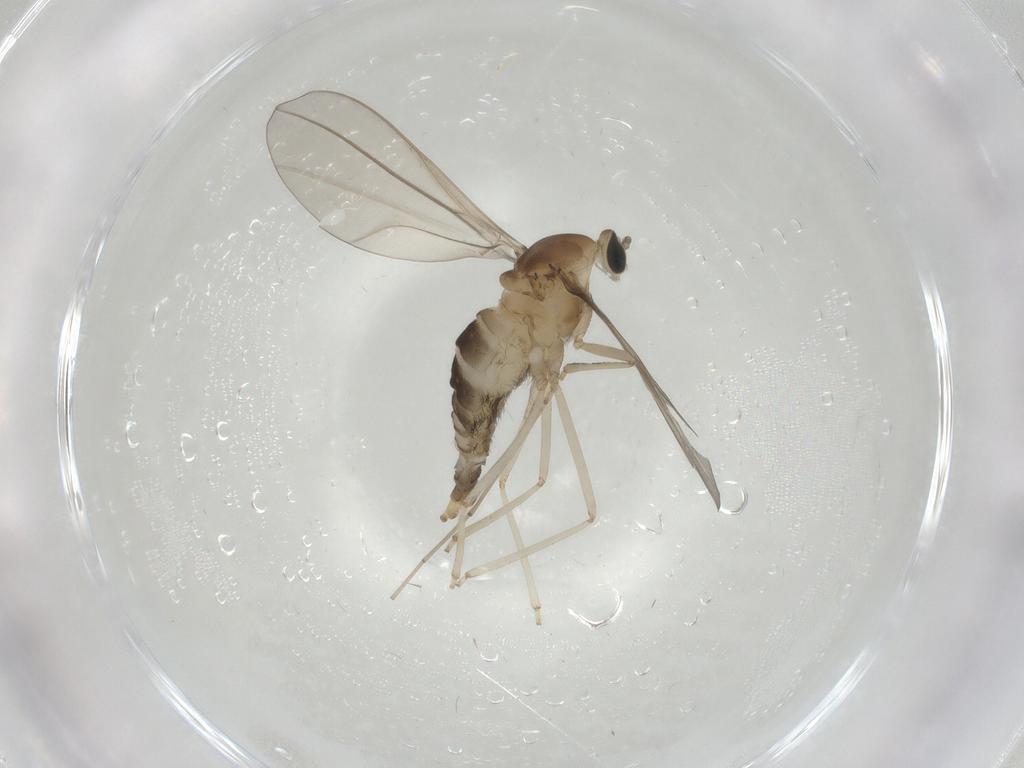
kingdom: Animalia
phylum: Arthropoda
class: Insecta
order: Diptera
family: Cecidomyiidae
